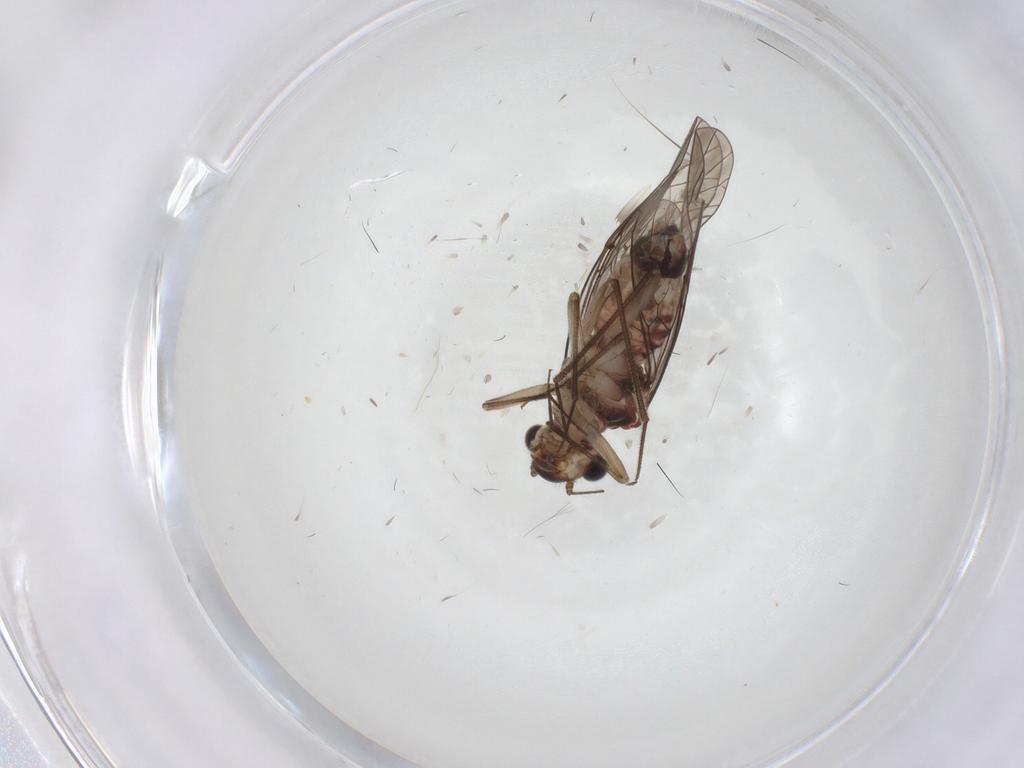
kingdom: Animalia
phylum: Arthropoda
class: Insecta
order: Psocodea
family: Lachesillidae
